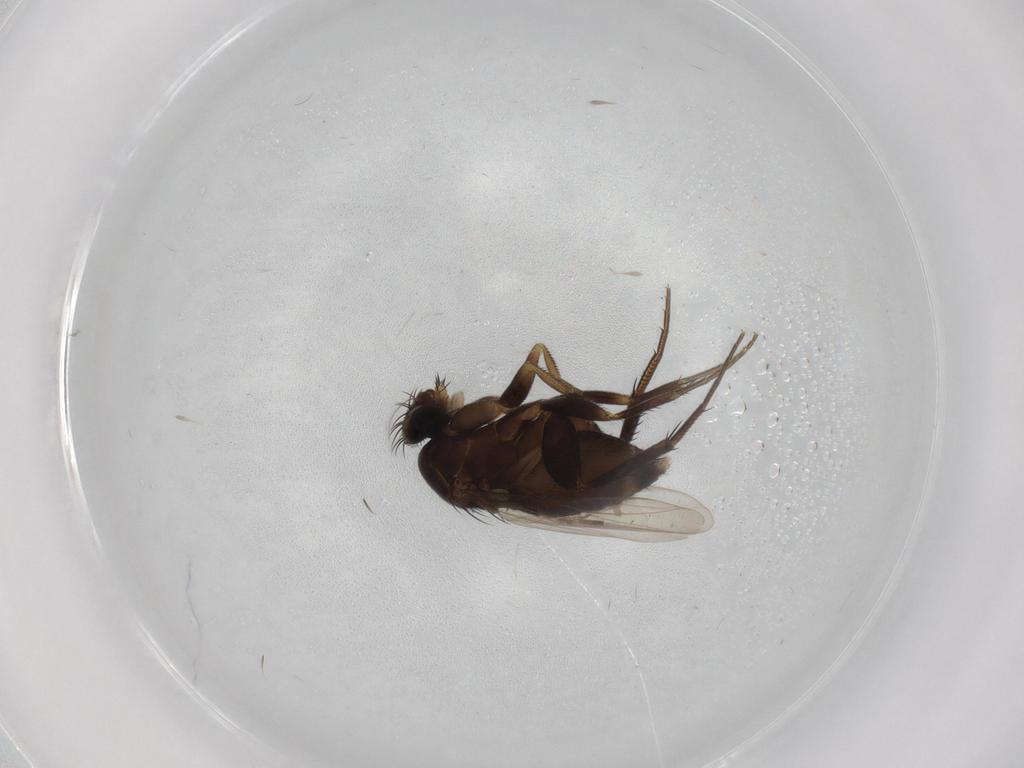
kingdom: Animalia
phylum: Arthropoda
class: Insecta
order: Diptera
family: Phoridae
